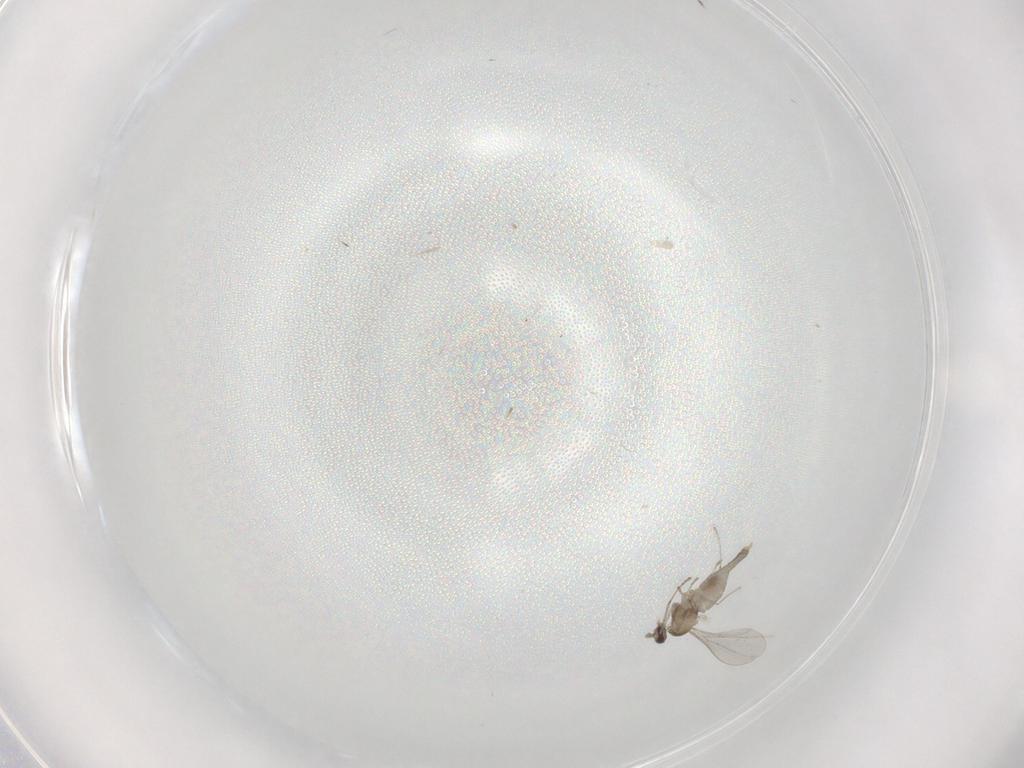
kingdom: Animalia
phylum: Arthropoda
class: Insecta
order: Diptera
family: Cecidomyiidae
